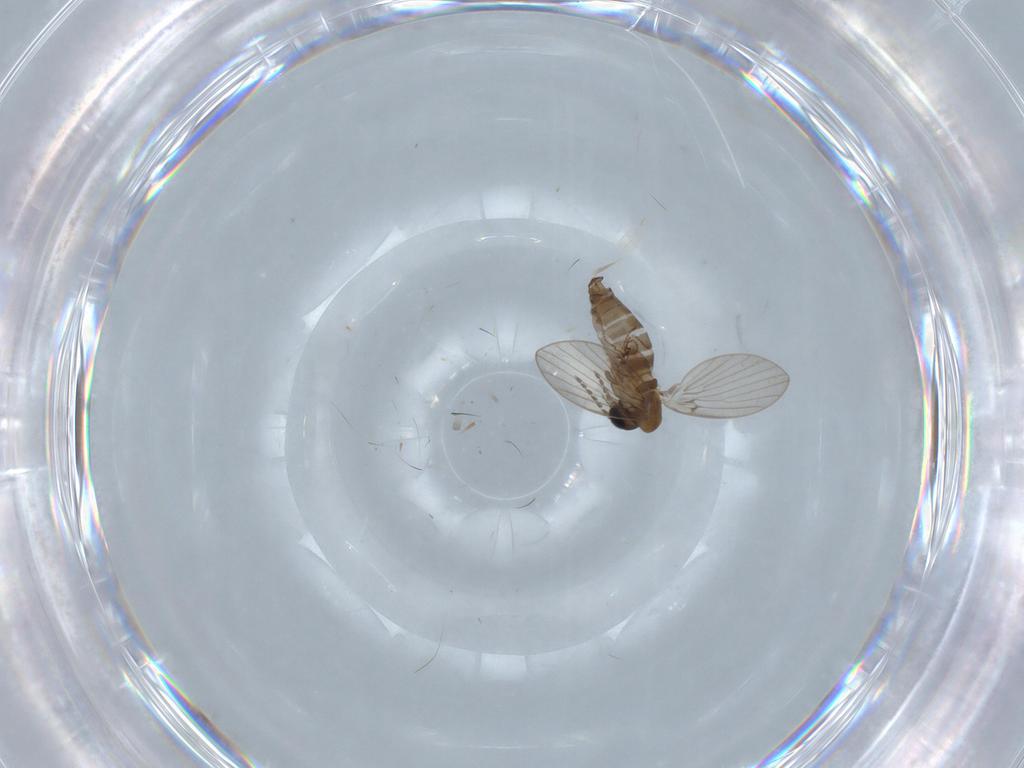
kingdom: Animalia
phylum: Arthropoda
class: Insecta
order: Diptera
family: Psychodidae
